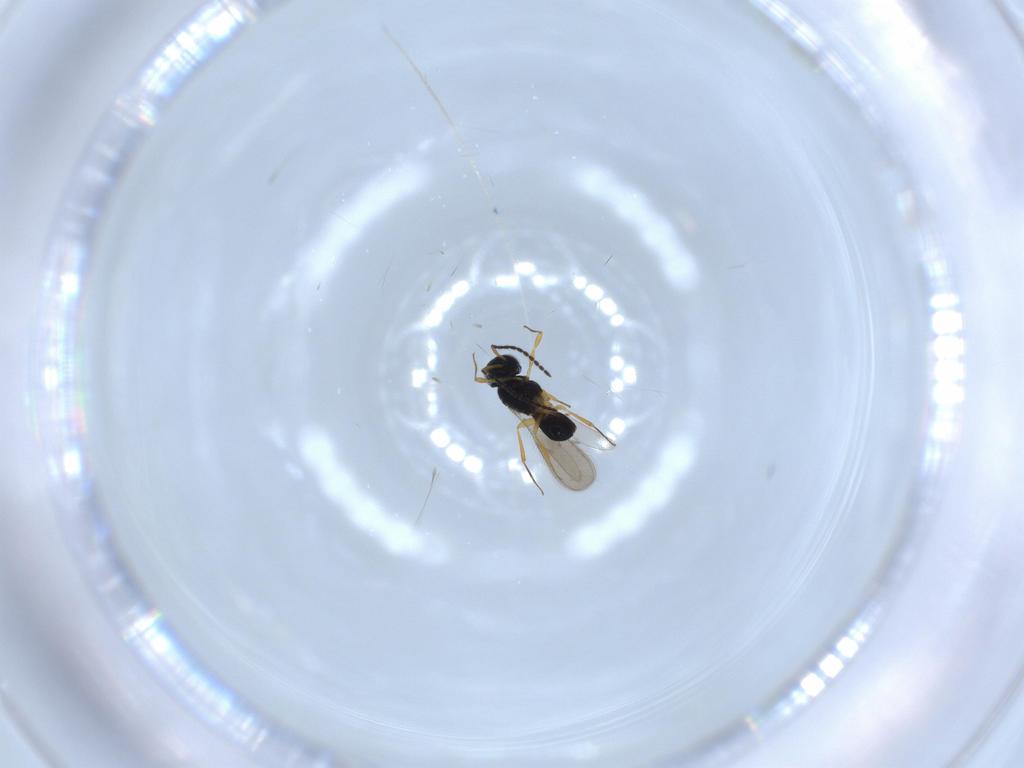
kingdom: Animalia
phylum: Arthropoda
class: Insecta
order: Hymenoptera
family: Scelionidae
